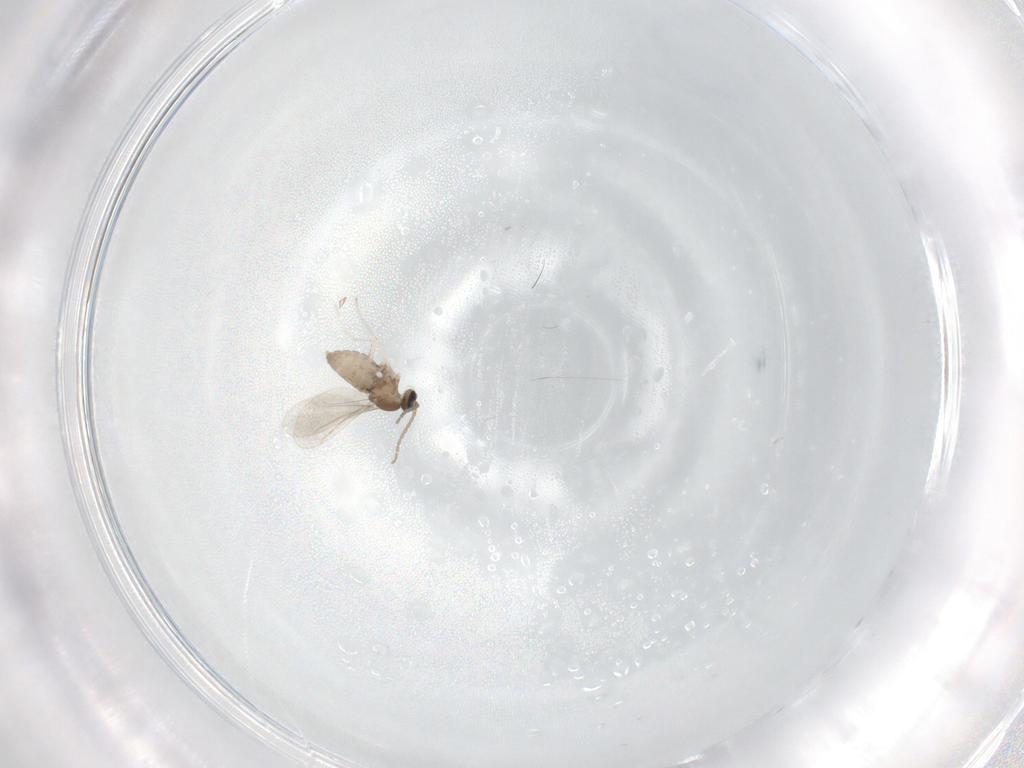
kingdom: Animalia
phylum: Arthropoda
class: Insecta
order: Diptera
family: Cecidomyiidae
